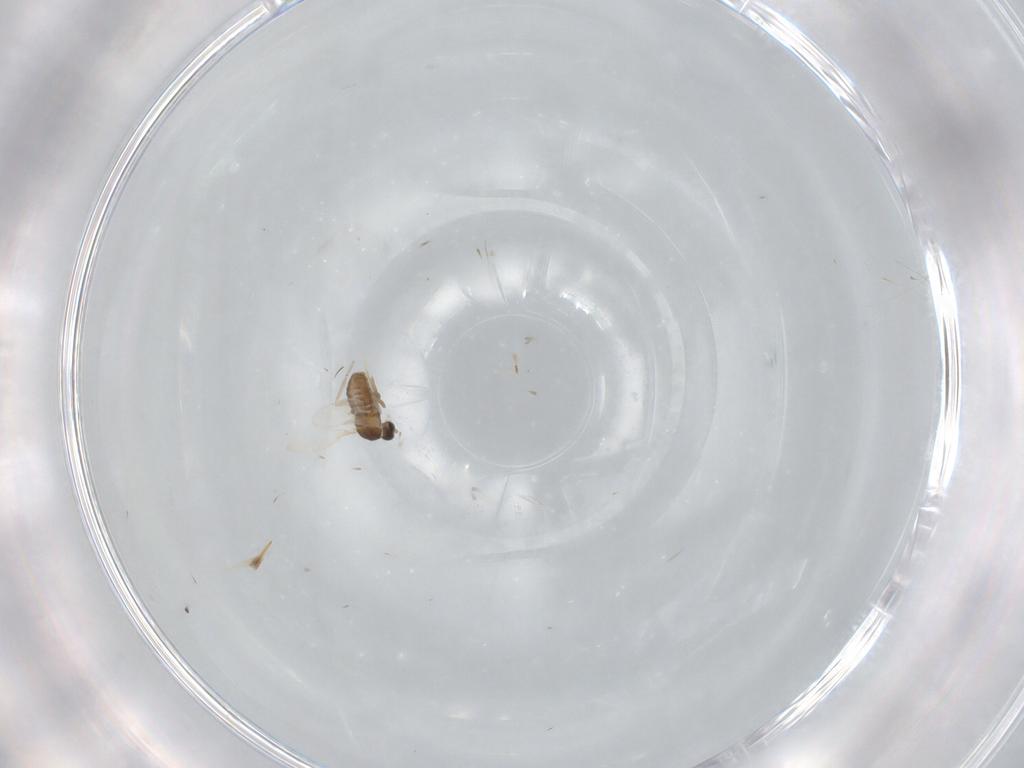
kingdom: Animalia
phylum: Arthropoda
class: Insecta
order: Diptera
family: Cecidomyiidae
